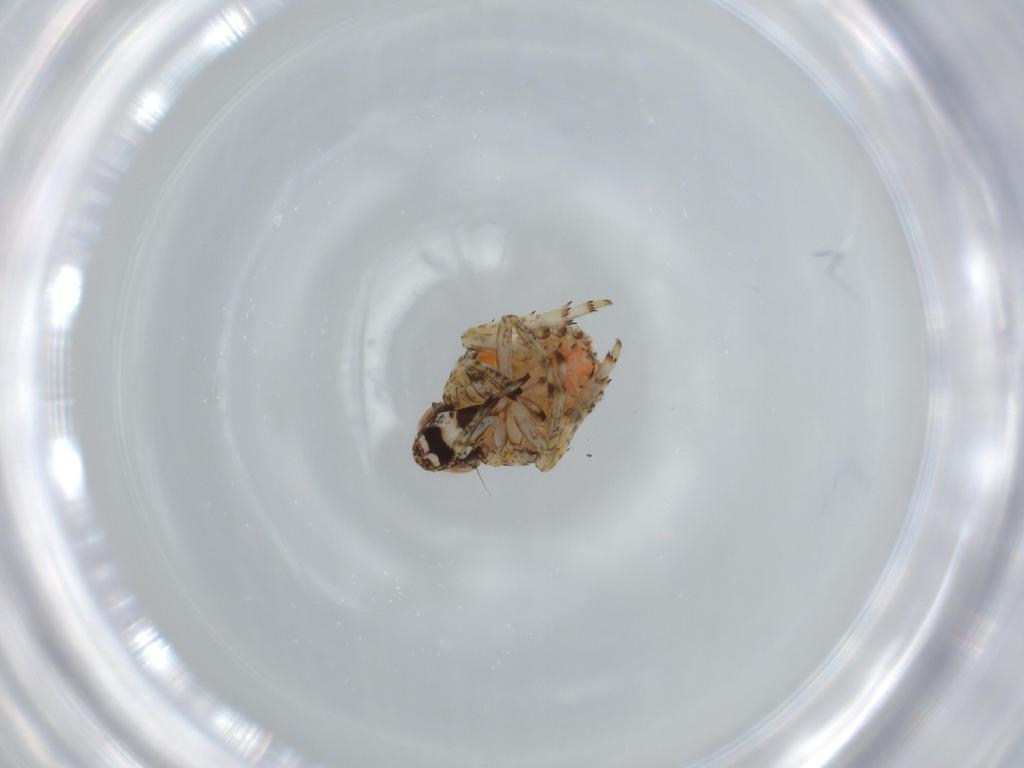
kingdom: Animalia
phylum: Arthropoda
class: Insecta
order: Hemiptera
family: Issidae
